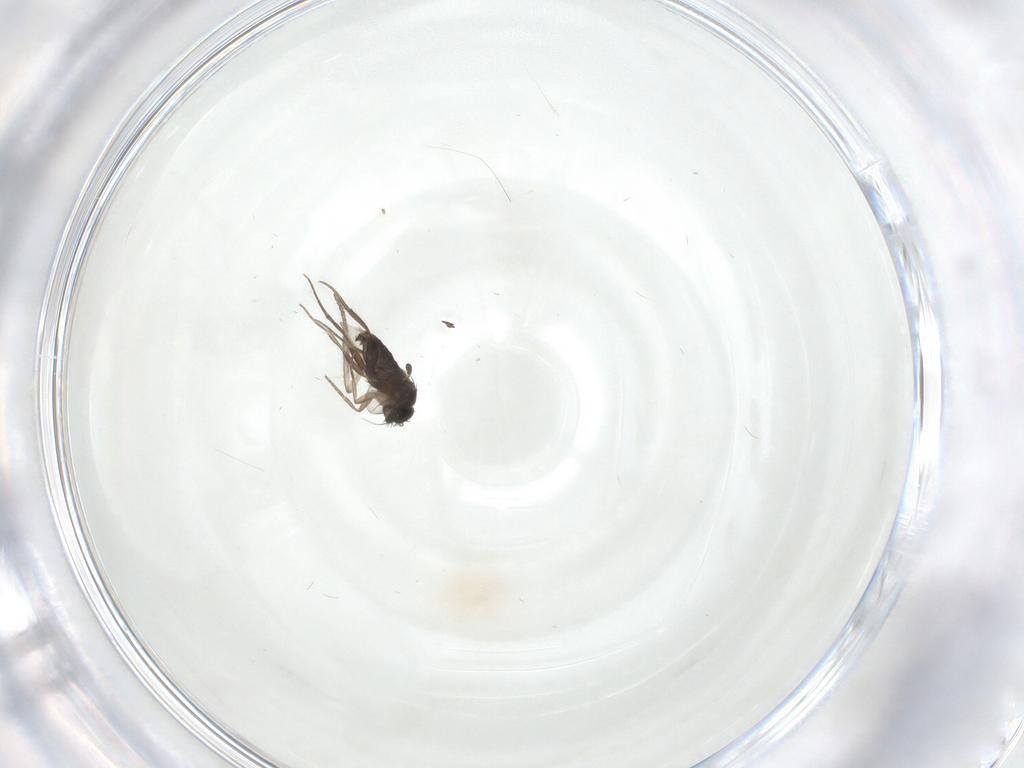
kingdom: Animalia
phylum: Arthropoda
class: Insecta
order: Diptera
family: Phoridae
